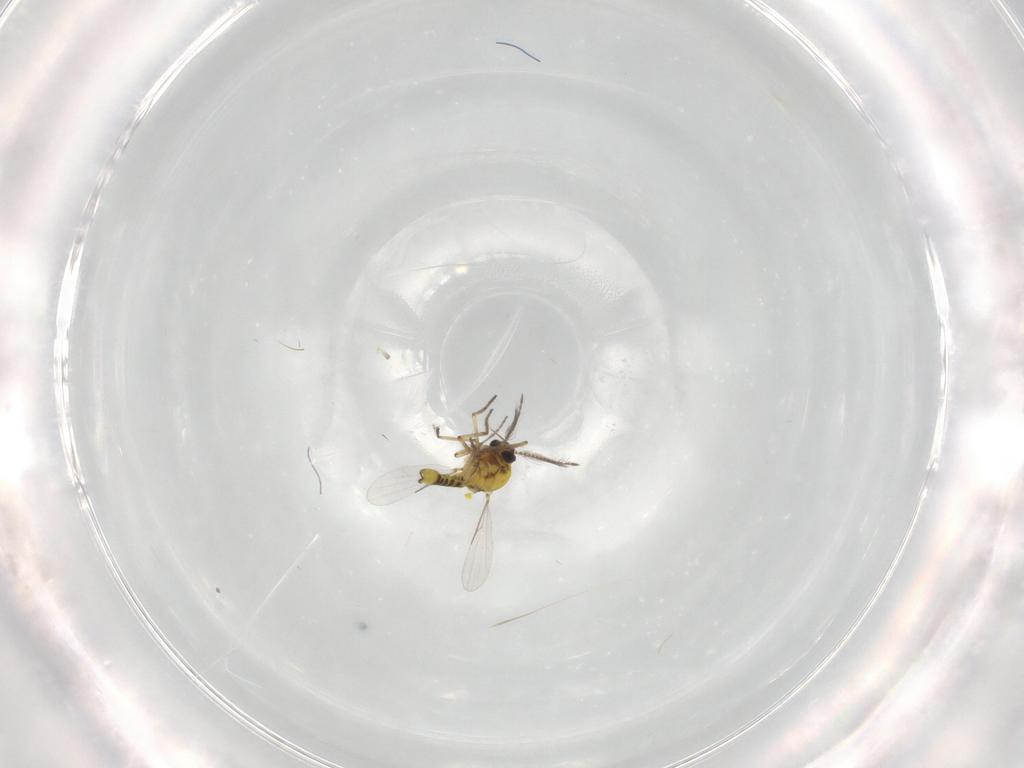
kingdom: Animalia
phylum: Arthropoda
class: Insecta
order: Diptera
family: Ceratopogonidae
